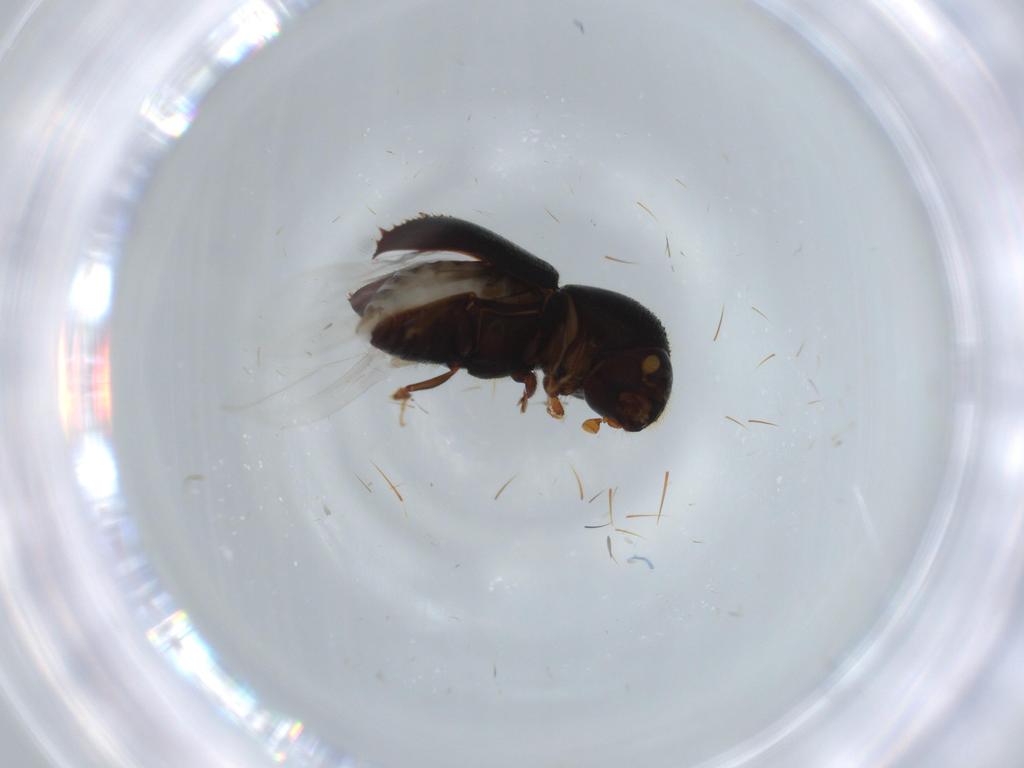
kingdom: Animalia
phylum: Arthropoda
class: Insecta
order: Coleoptera
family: Curculionidae
